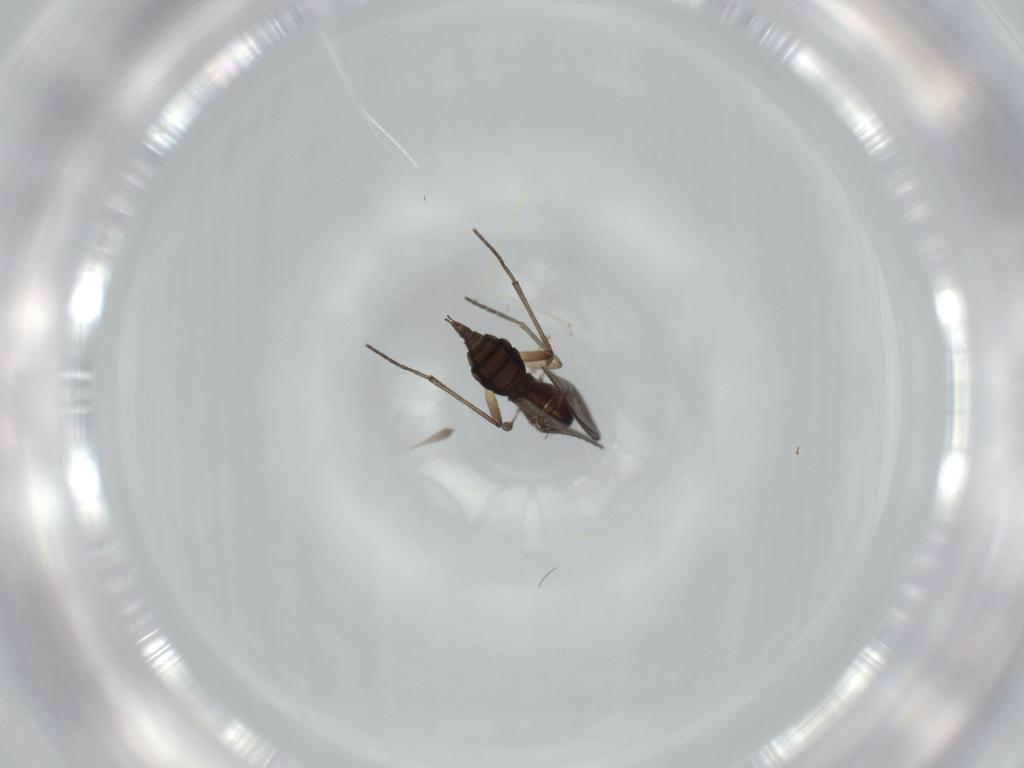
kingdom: Animalia
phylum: Arthropoda
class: Insecta
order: Diptera
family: Sciaridae
